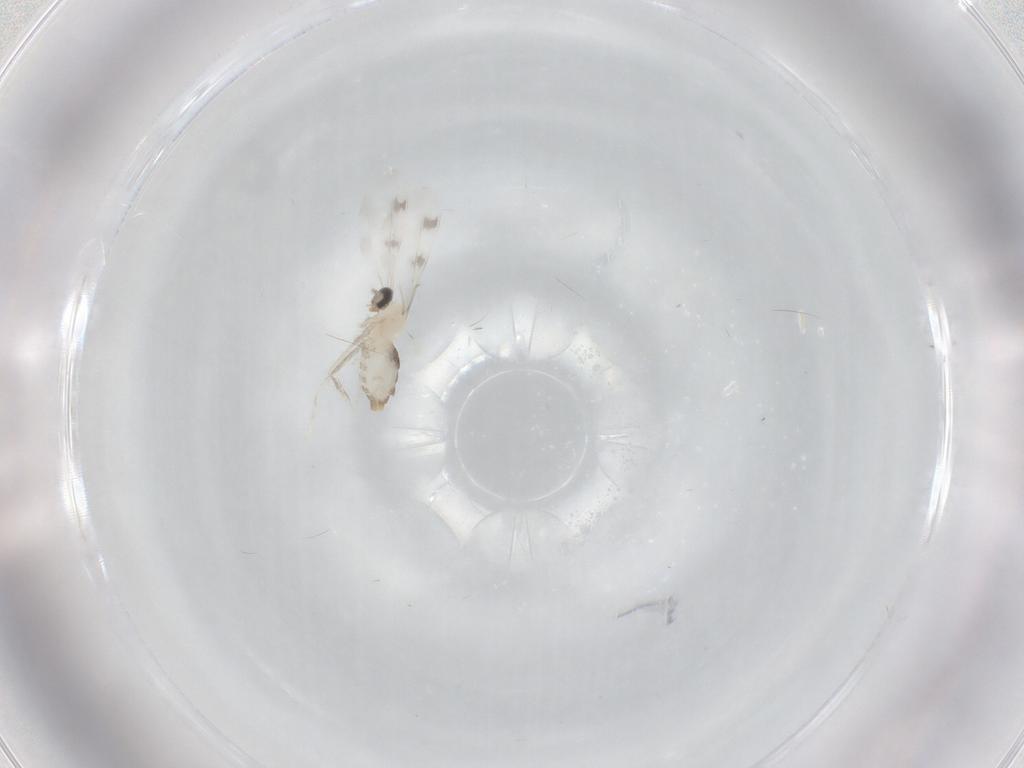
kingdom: Animalia
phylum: Arthropoda
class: Insecta
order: Diptera
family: Cecidomyiidae
